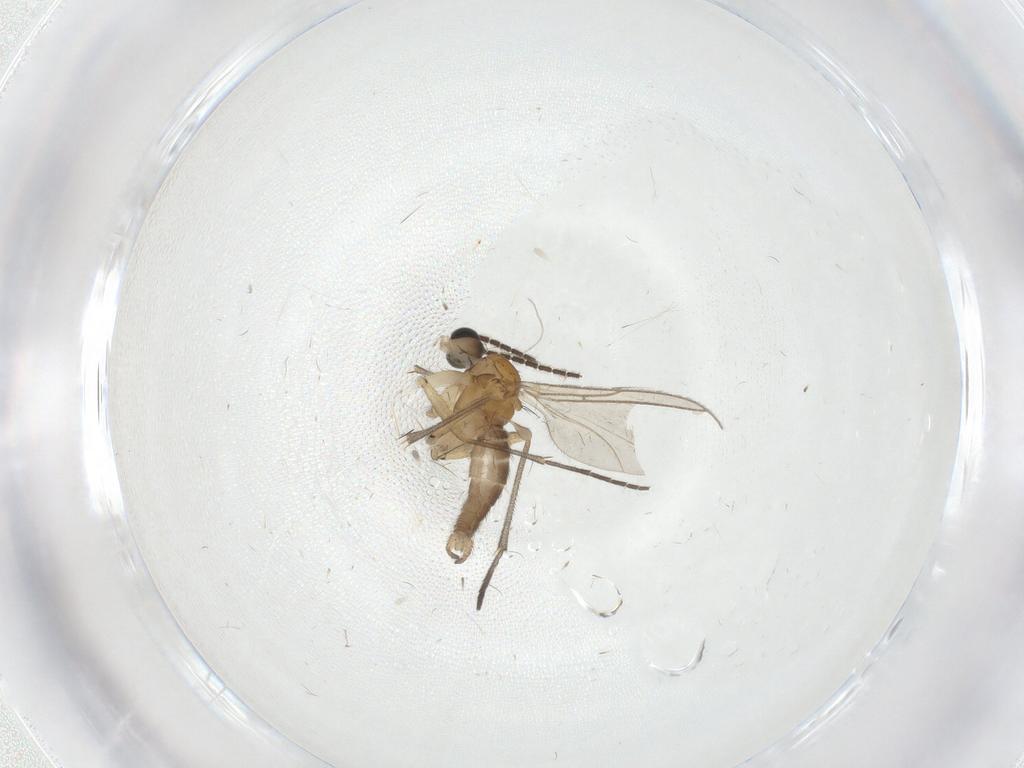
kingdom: Animalia
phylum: Arthropoda
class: Insecta
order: Diptera
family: Sciaridae
